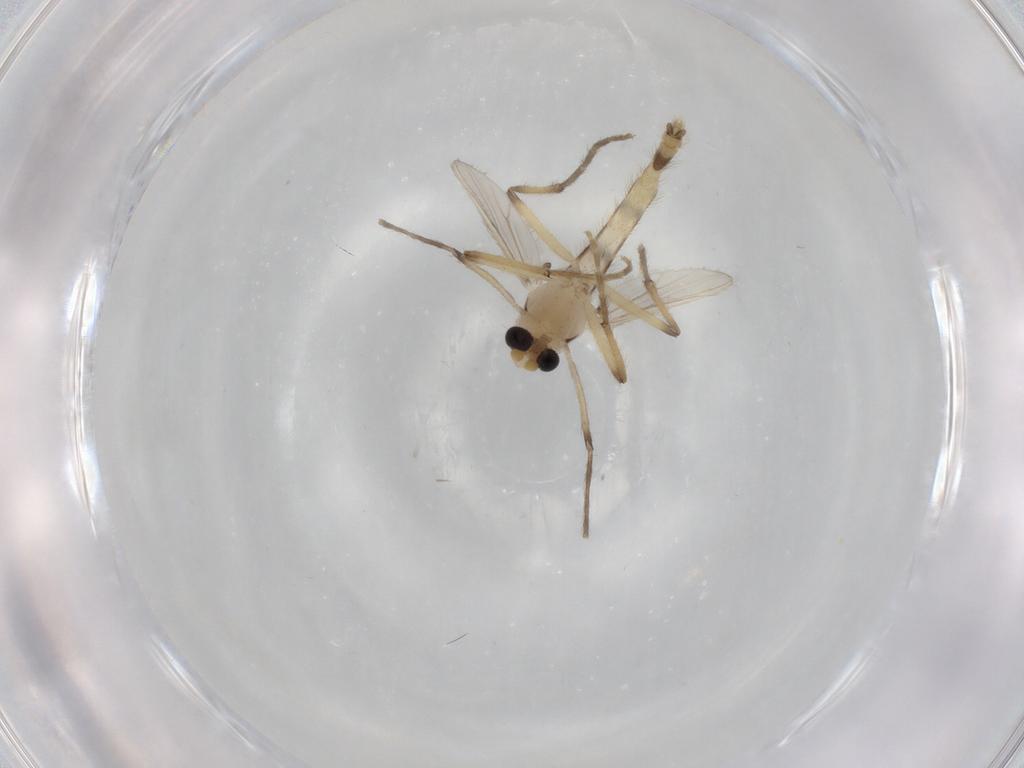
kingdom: Animalia
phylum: Arthropoda
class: Insecta
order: Diptera
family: Chironomidae
